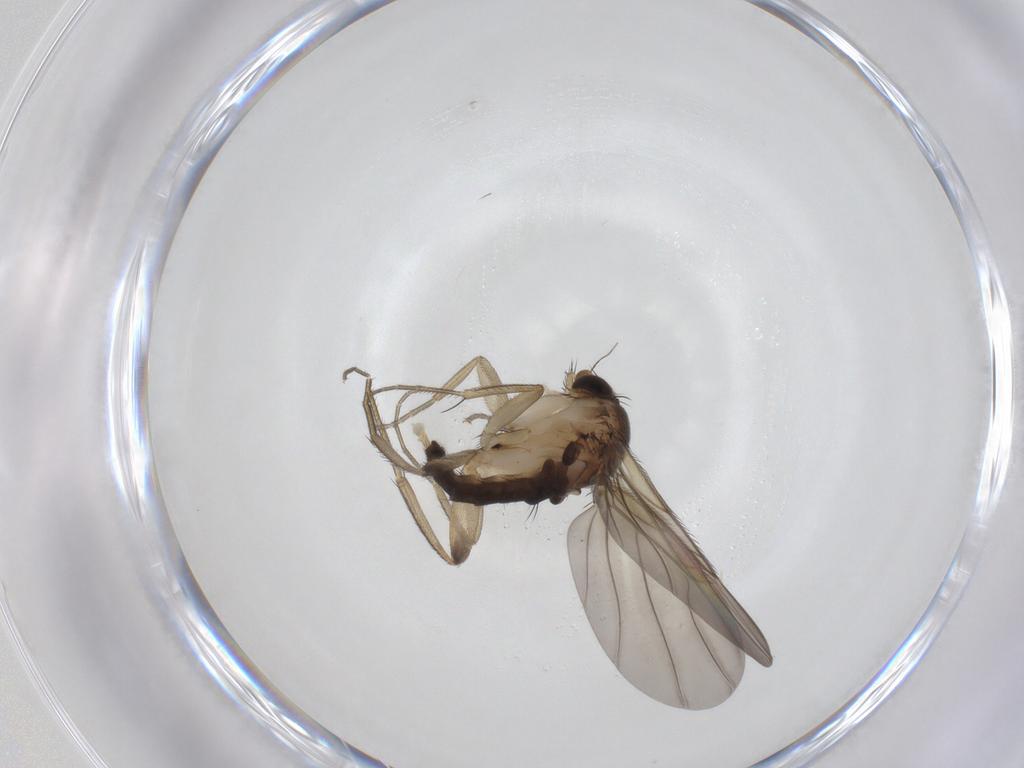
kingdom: Animalia
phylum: Arthropoda
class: Insecta
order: Diptera
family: Phoridae
